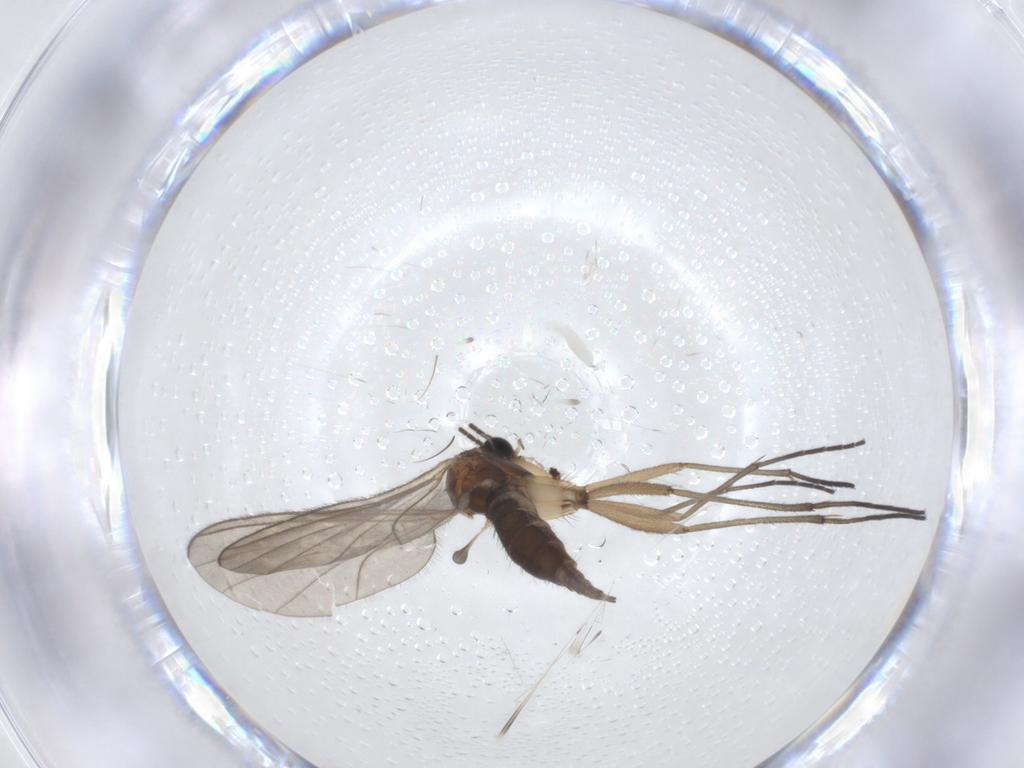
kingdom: Animalia
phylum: Arthropoda
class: Insecta
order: Diptera
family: Sciaridae
